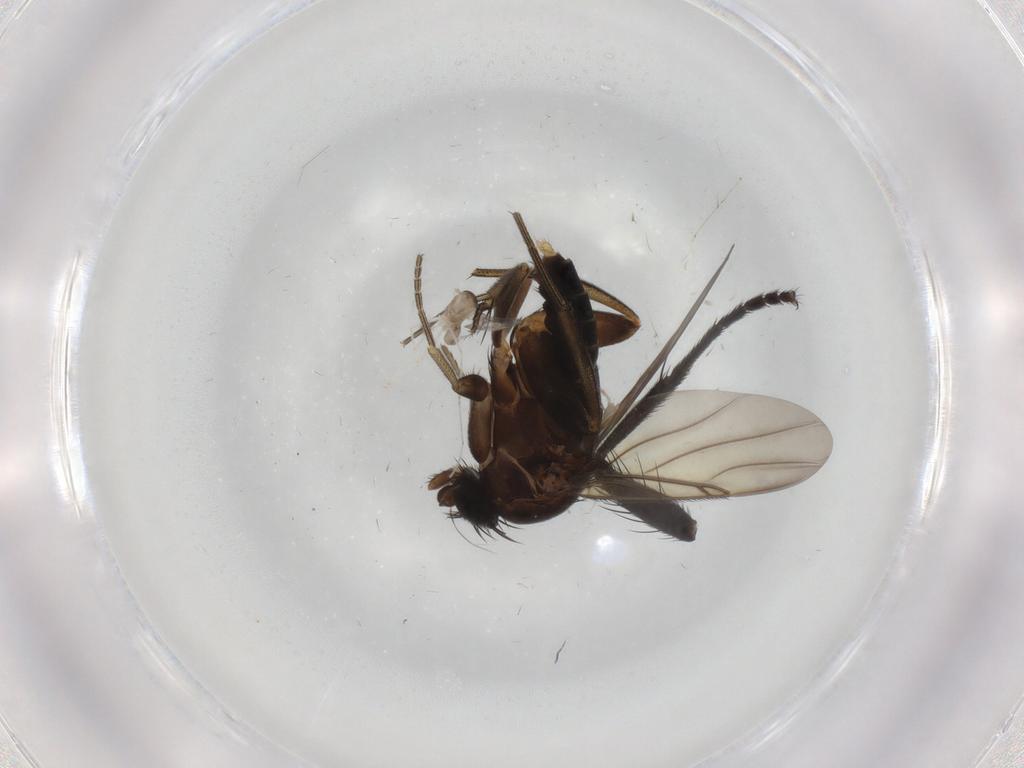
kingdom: Animalia
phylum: Arthropoda
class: Insecta
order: Diptera
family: Phoridae
